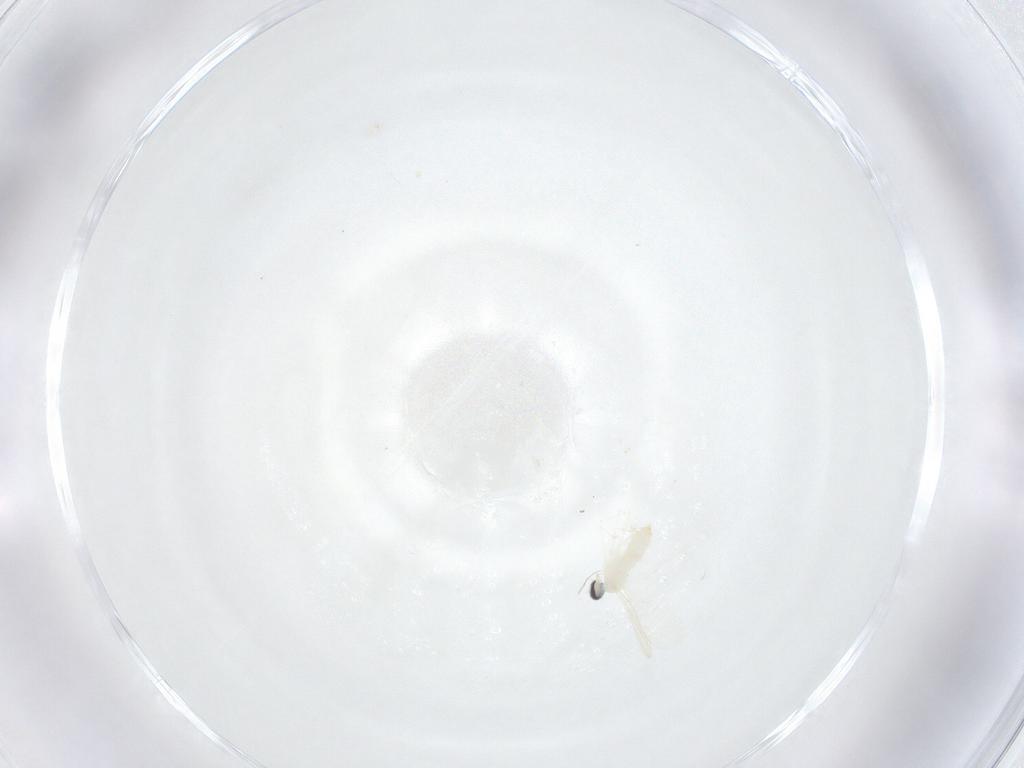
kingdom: Animalia
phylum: Arthropoda
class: Insecta
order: Diptera
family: Cecidomyiidae
